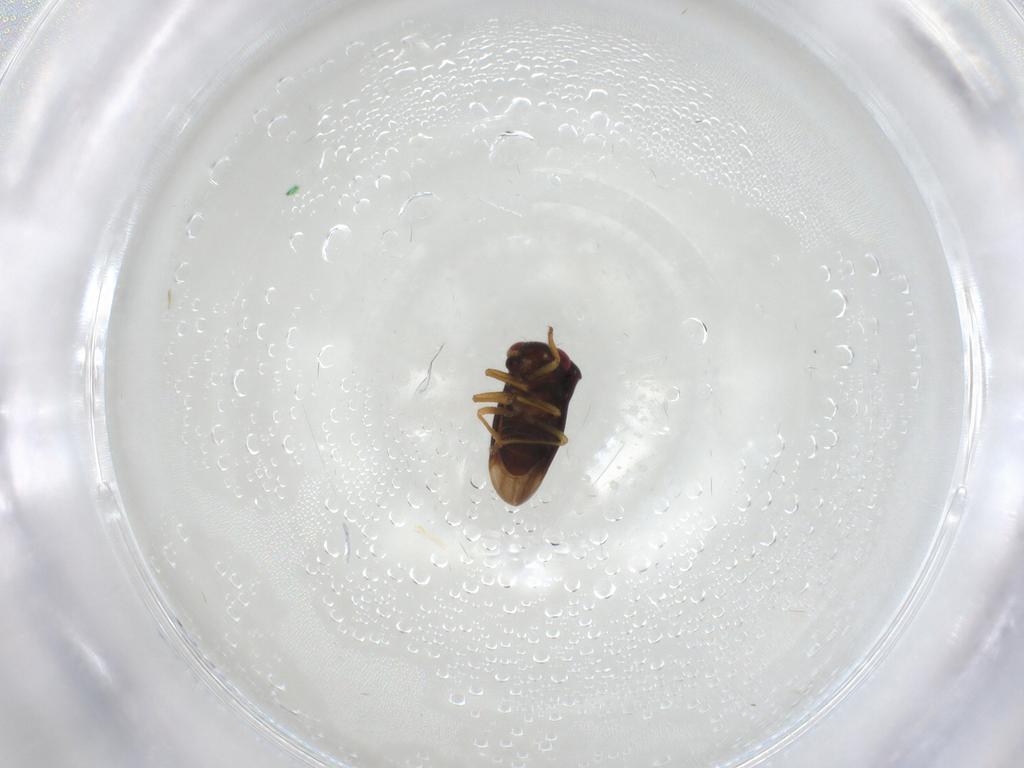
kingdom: Animalia
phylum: Arthropoda
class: Insecta
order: Hemiptera
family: Schizopteridae
